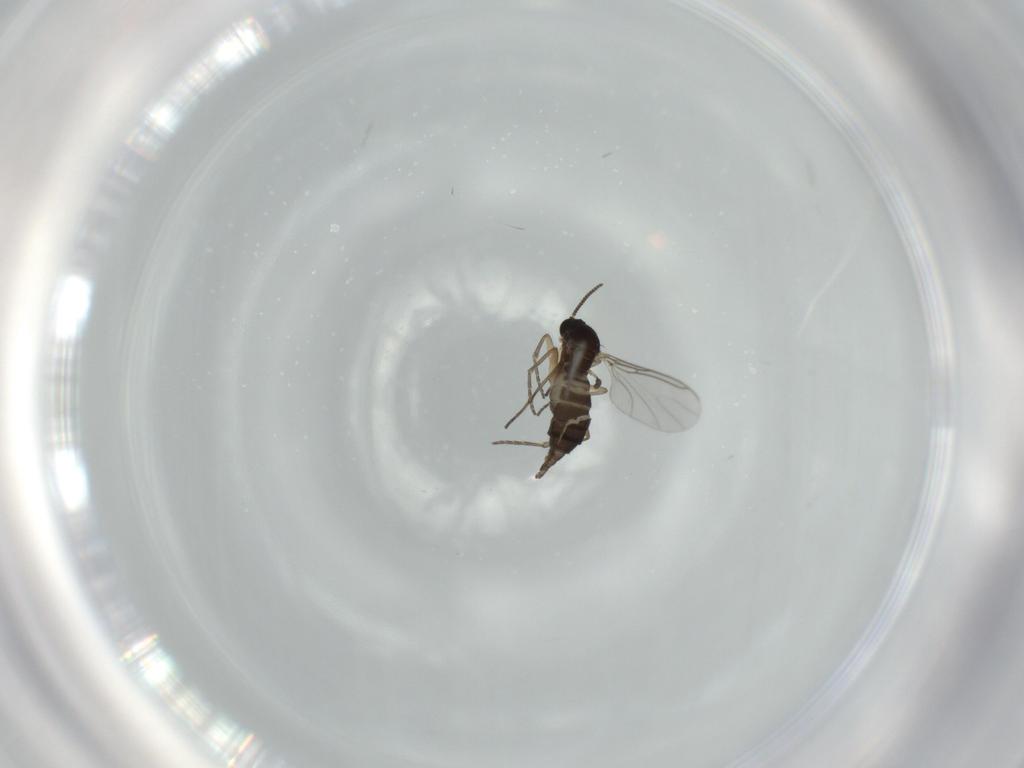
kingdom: Animalia
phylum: Arthropoda
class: Insecta
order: Diptera
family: Sciaridae
